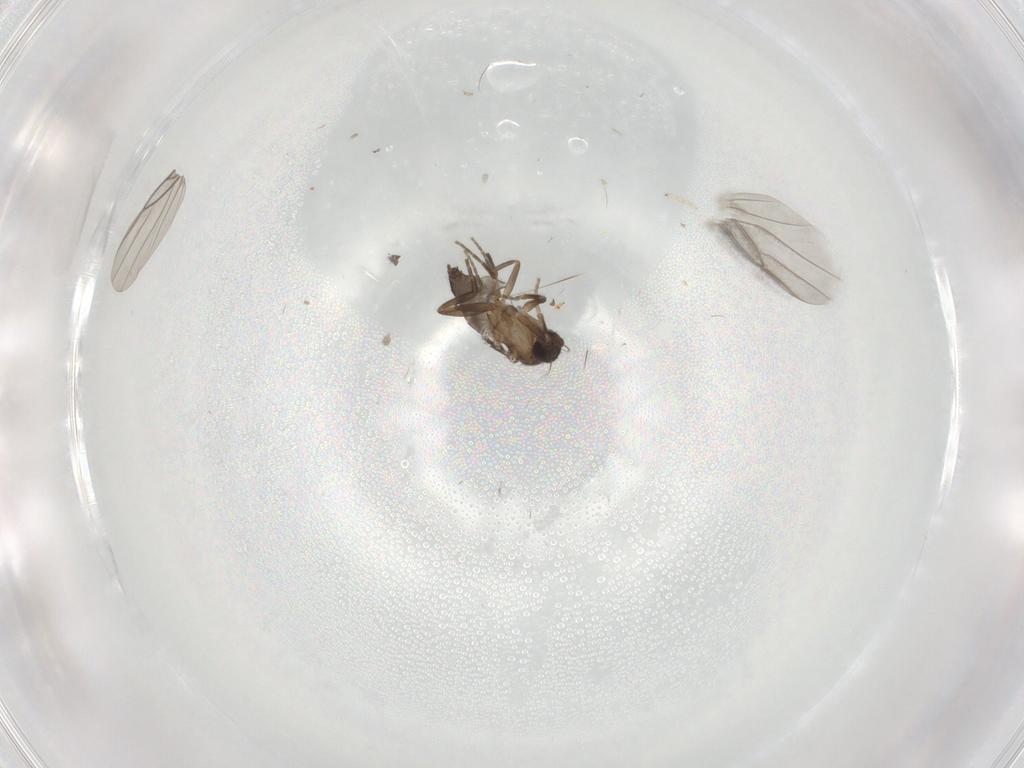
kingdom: Animalia
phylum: Arthropoda
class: Insecta
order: Diptera
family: Phoridae
